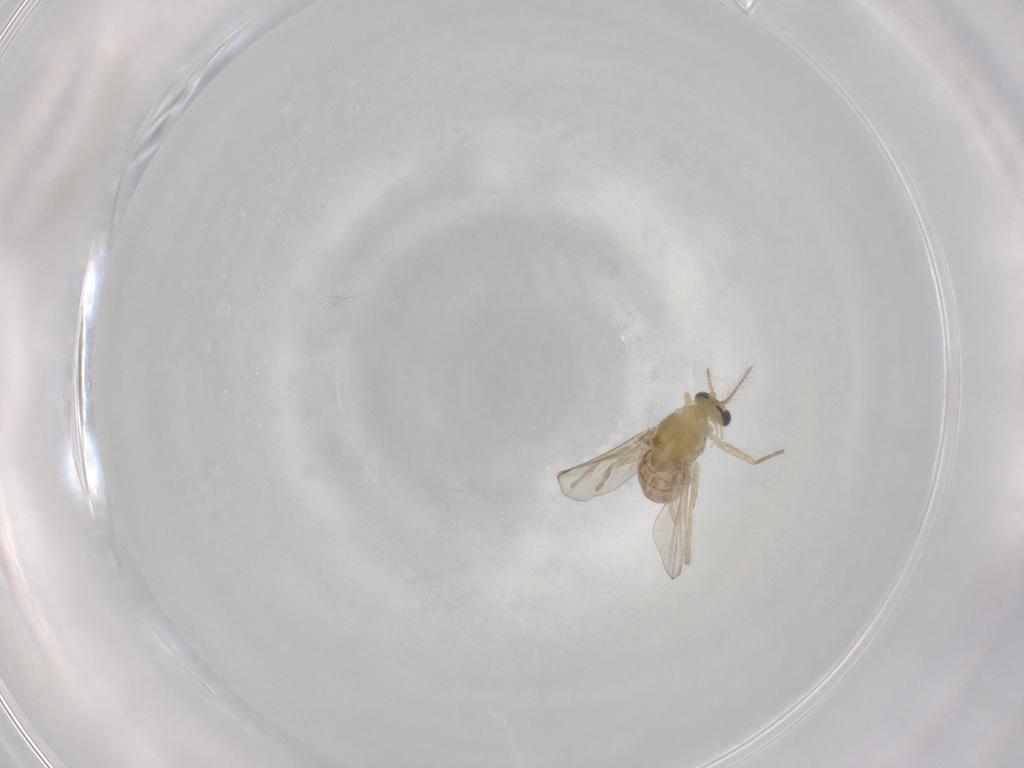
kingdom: Animalia
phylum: Arthropoda
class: Insecta
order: Diptera
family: Chironomidae
